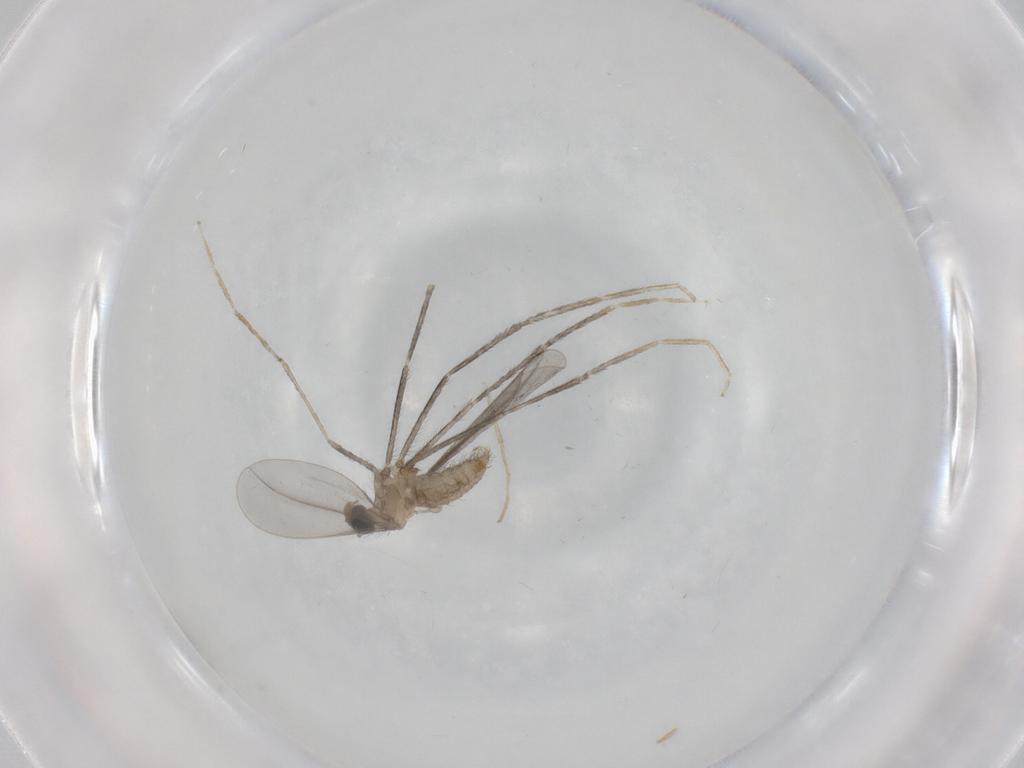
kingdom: Animalia
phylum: Arthropoda
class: Insecta
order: Diptera
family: Cecidomyiidae
